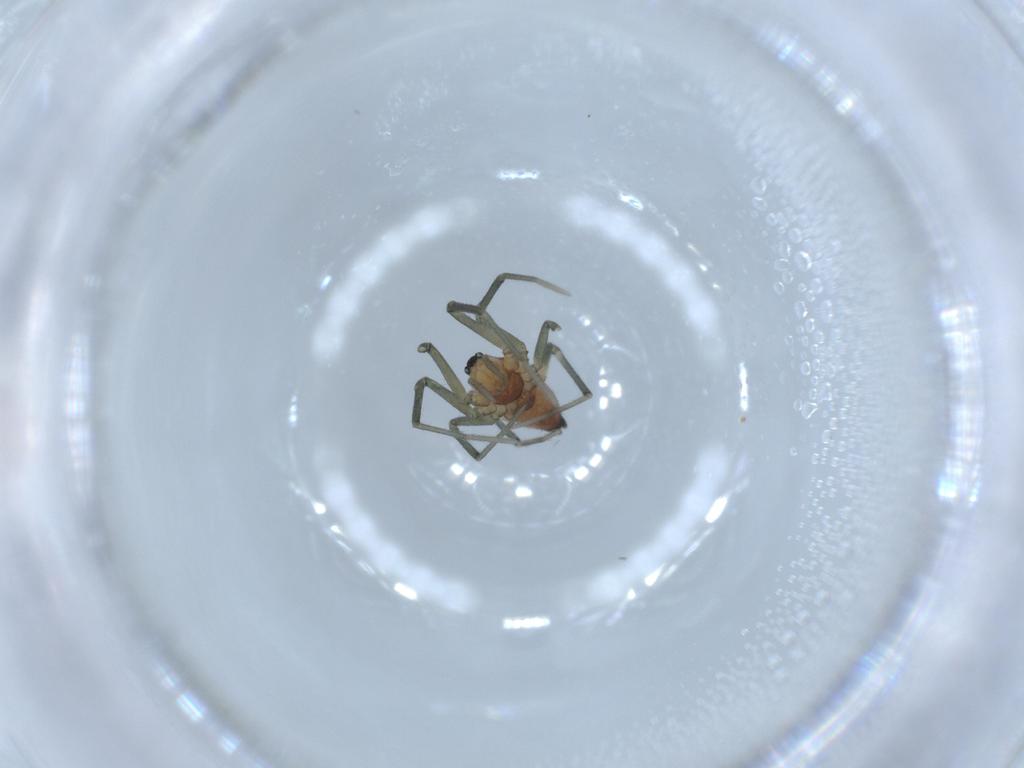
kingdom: Animalia
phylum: Arthropoda
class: Arachnida
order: Araneae
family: Linyphiidae
